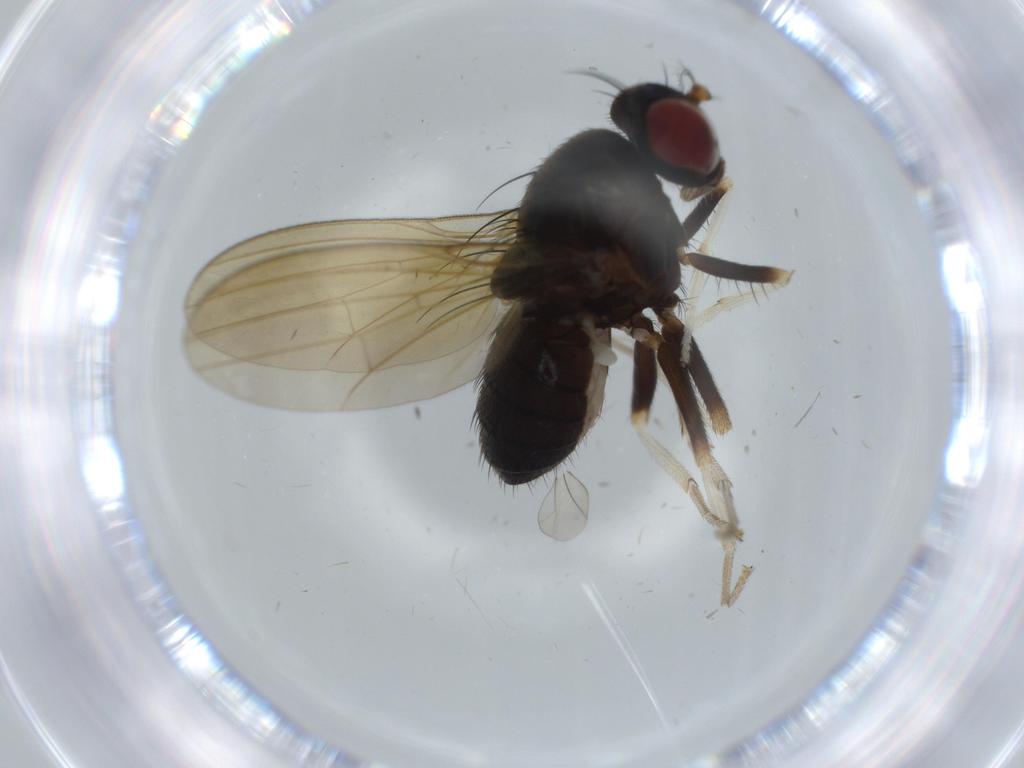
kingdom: Animalia
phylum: Arthropoda
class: Insecta
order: Diptera
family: Lauxaniidae
